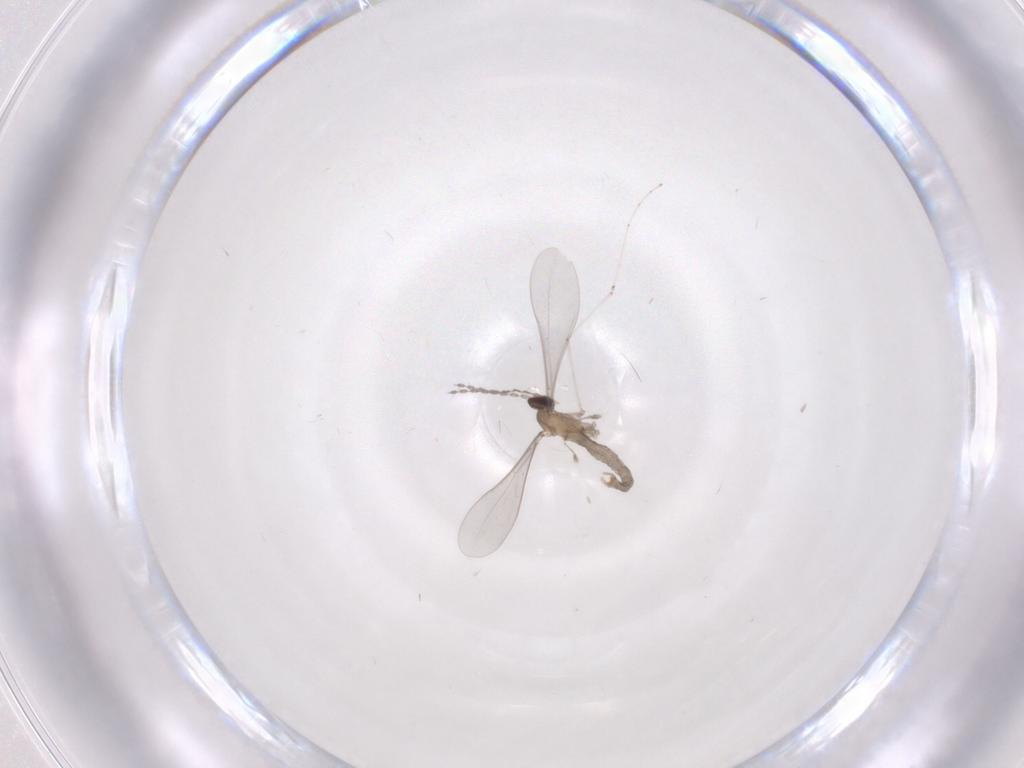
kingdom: Animalia
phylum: Arthropoda
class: Insecta
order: Diptera
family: Cecidomyiidae
